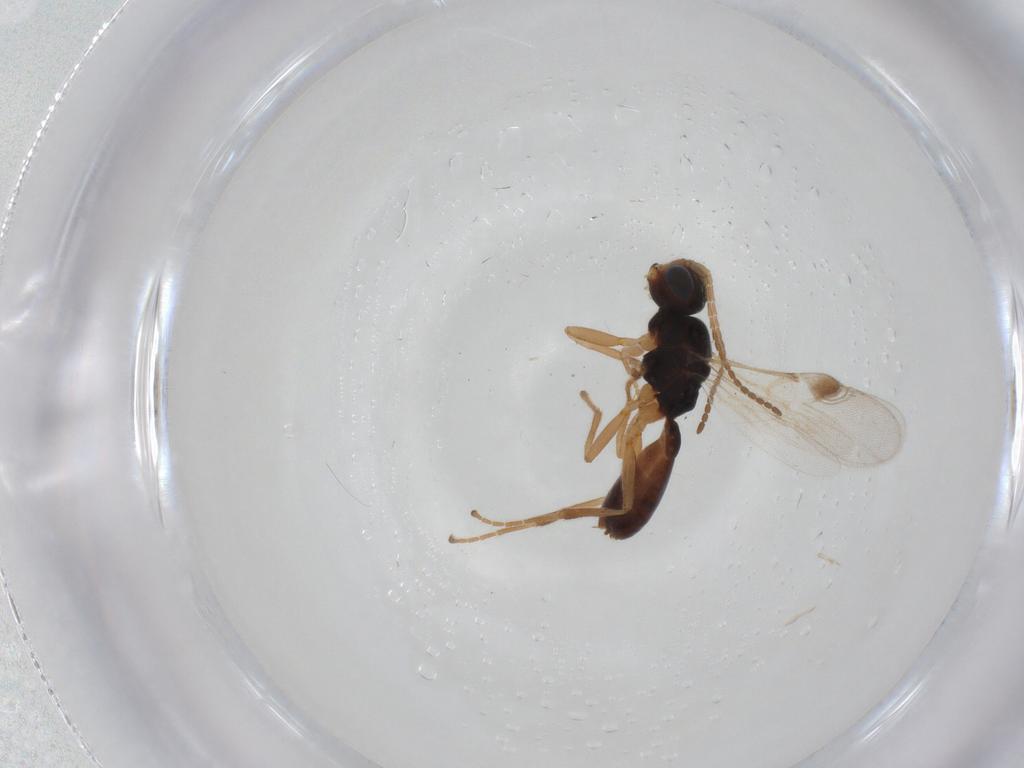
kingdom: Animalia
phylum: Arthropoda
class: Insecta
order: Hymenoptera
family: Braconidae
